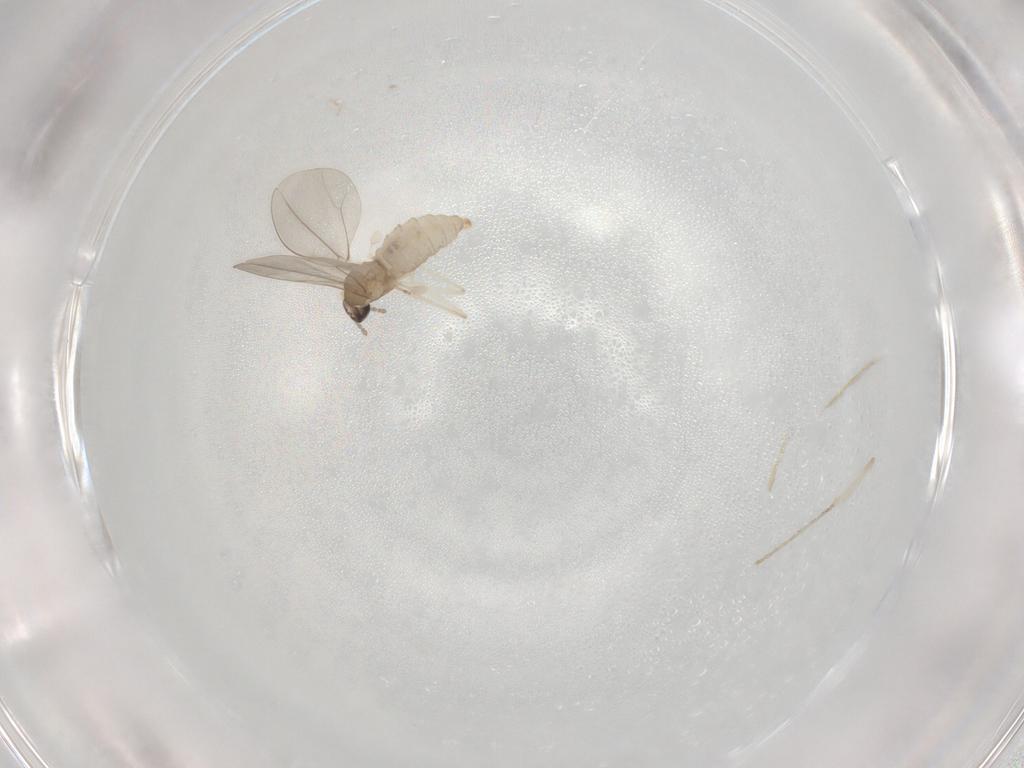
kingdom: Animalia
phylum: Arthropoda
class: Insecta
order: Diptera
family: Cecidomyiidae
